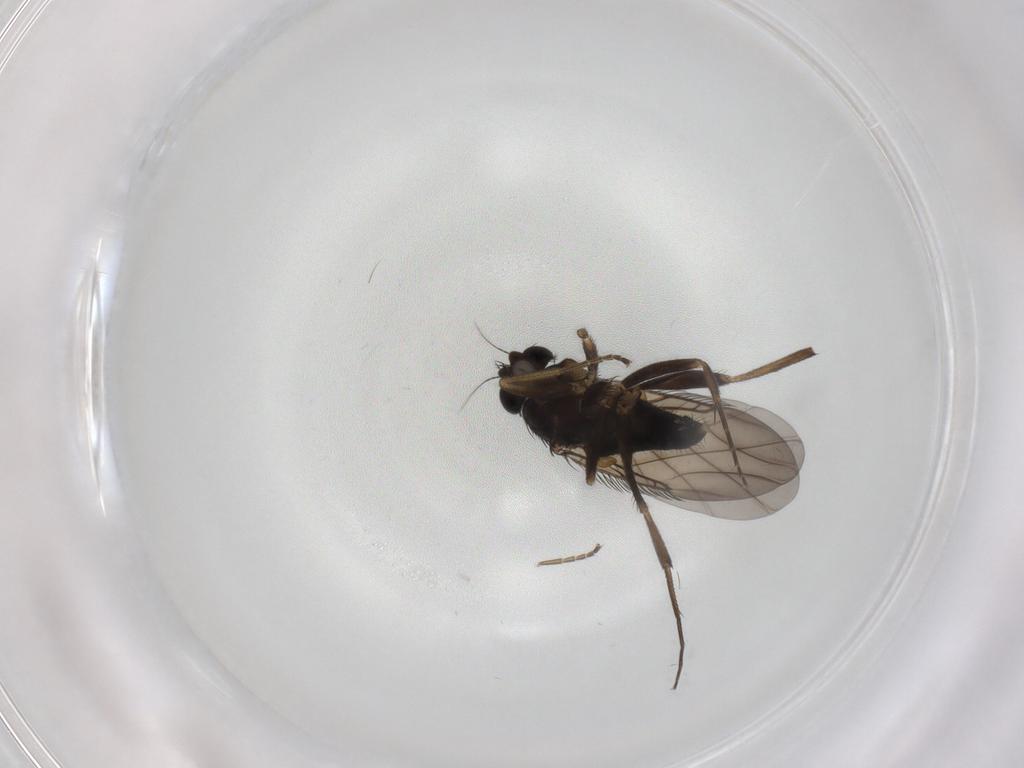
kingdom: Animalia
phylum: Arthropoda
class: Insecta
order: Diptera
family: Phoridae
